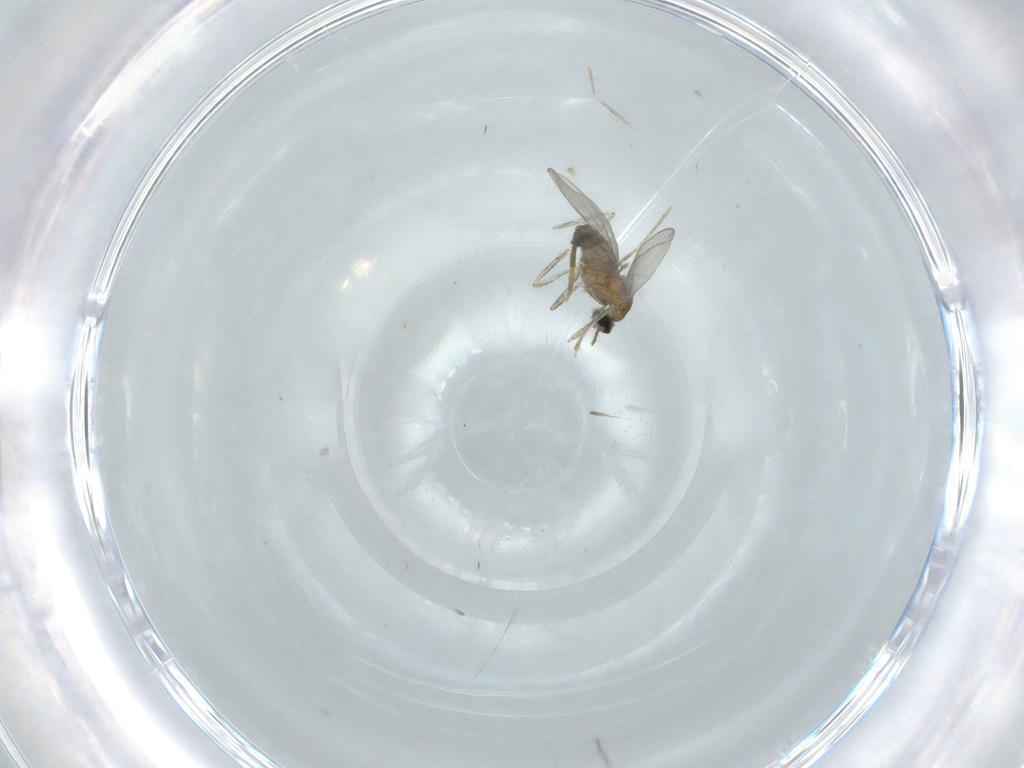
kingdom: Animalia
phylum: Arthropoda
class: Insecta
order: Diptera
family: Cecidomyiidae
